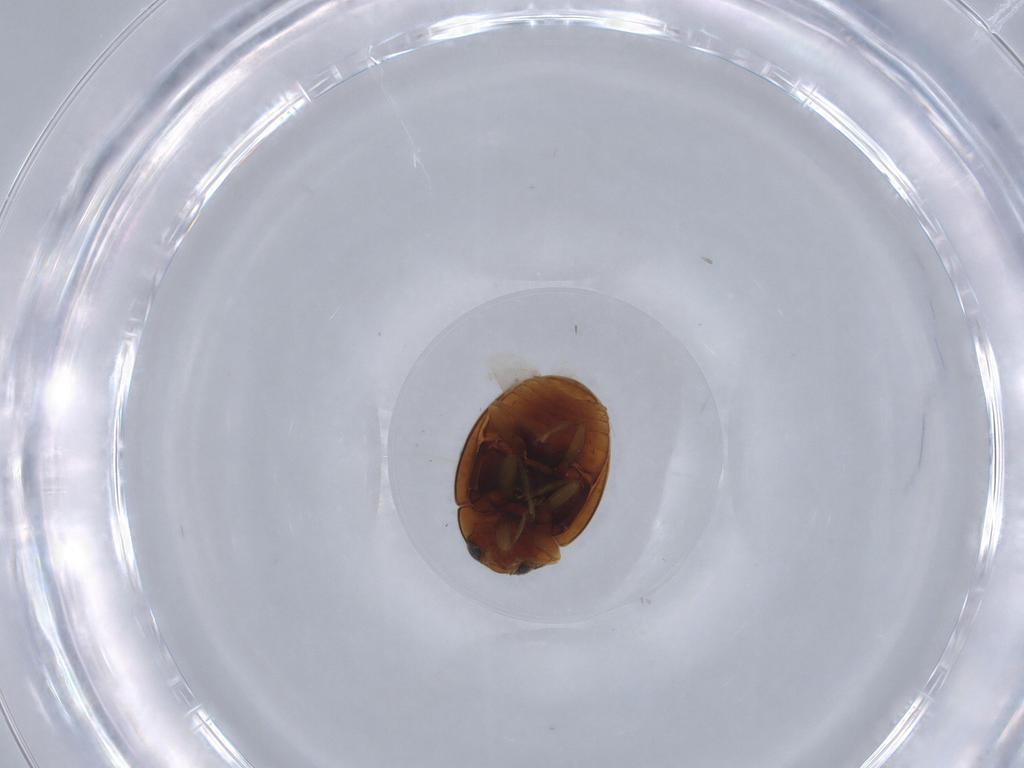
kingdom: Animalia
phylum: Arthropoda
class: Insecta
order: Coleoptera
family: Coccinellidae
